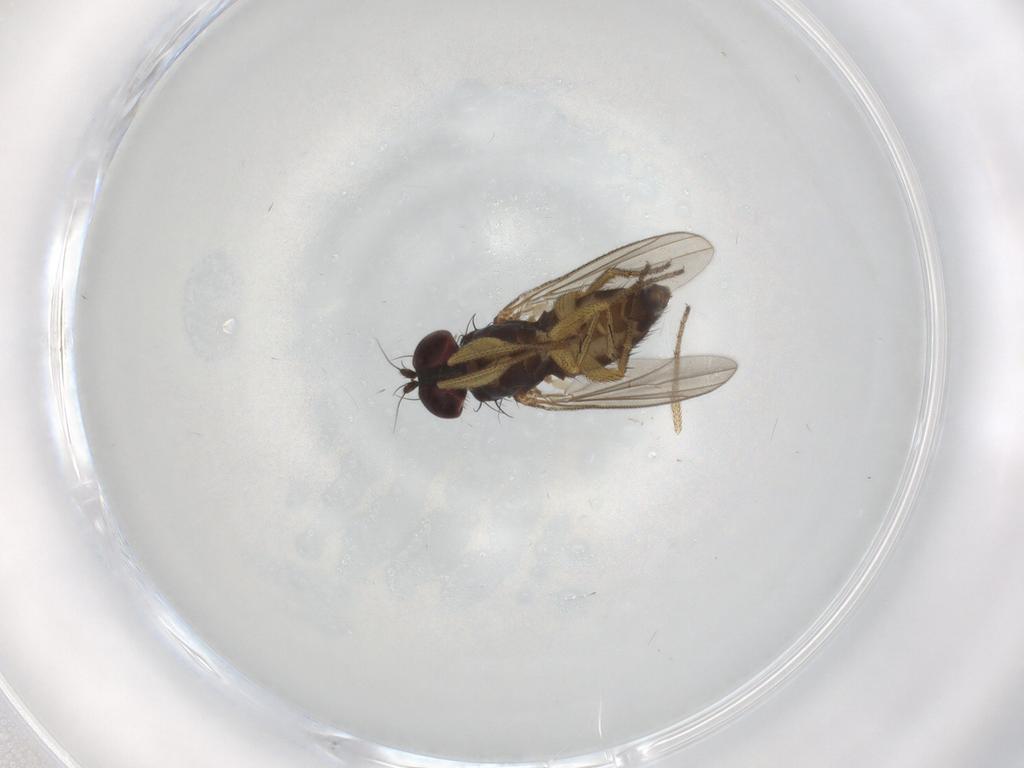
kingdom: Animalia
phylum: Arthropoda
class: Insecta
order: Diptera
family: Dolichopodidae
